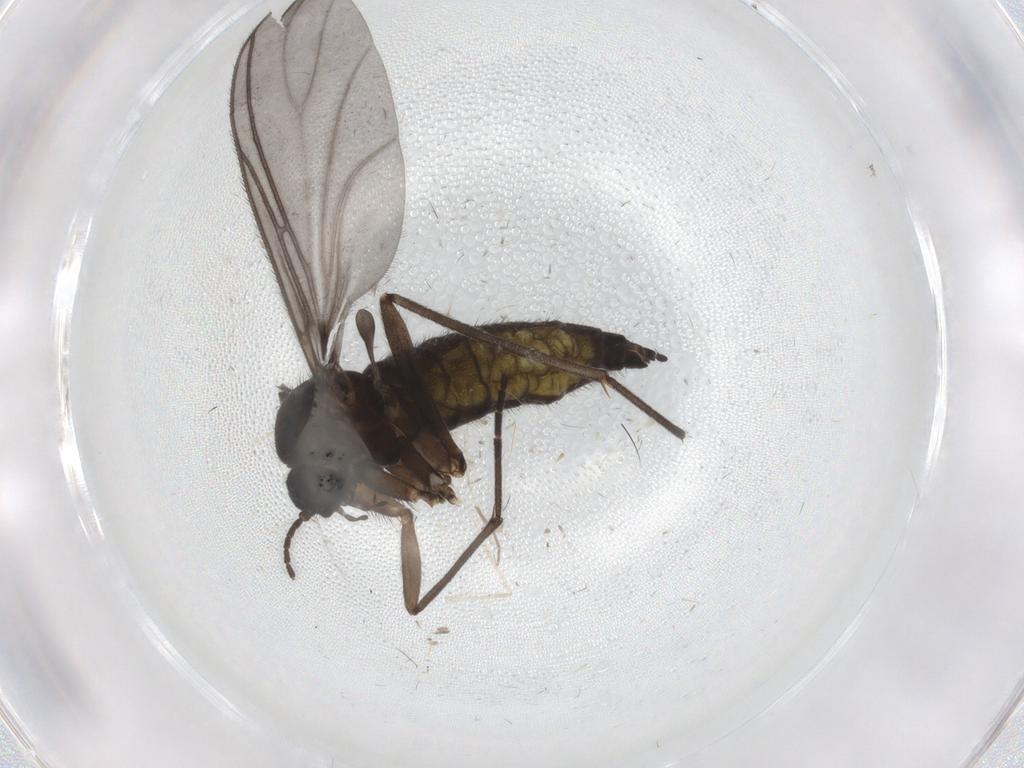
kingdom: Animalia
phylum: Arthropoda
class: Insecta
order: Diptera
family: Sciaridae
